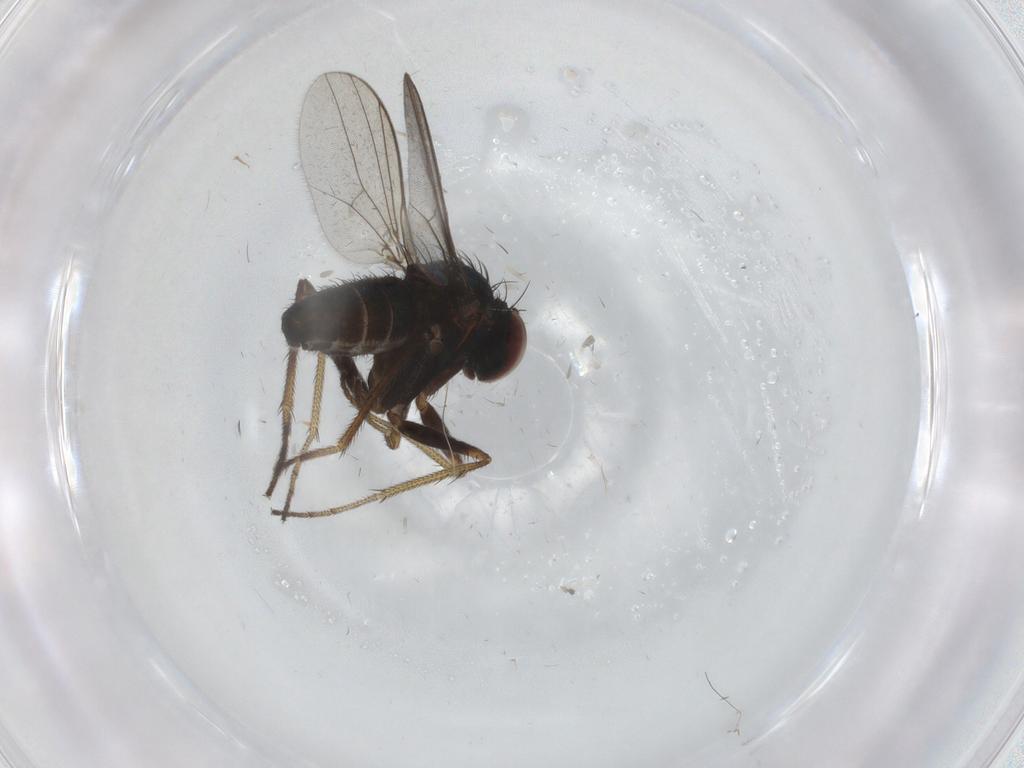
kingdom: Animalia
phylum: Arthropoda
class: Insecta
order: Diptera
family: Dolichopodidae
